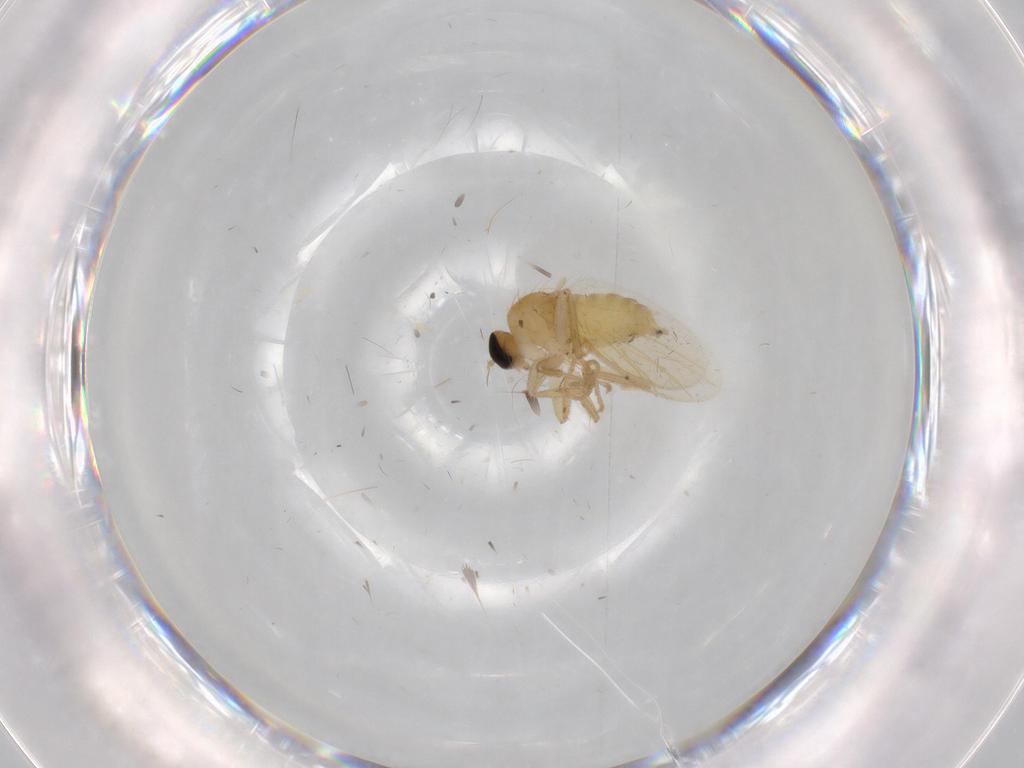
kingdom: Animalia
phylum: Arthropoda
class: Insecta
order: Diptera
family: Hybotidae
